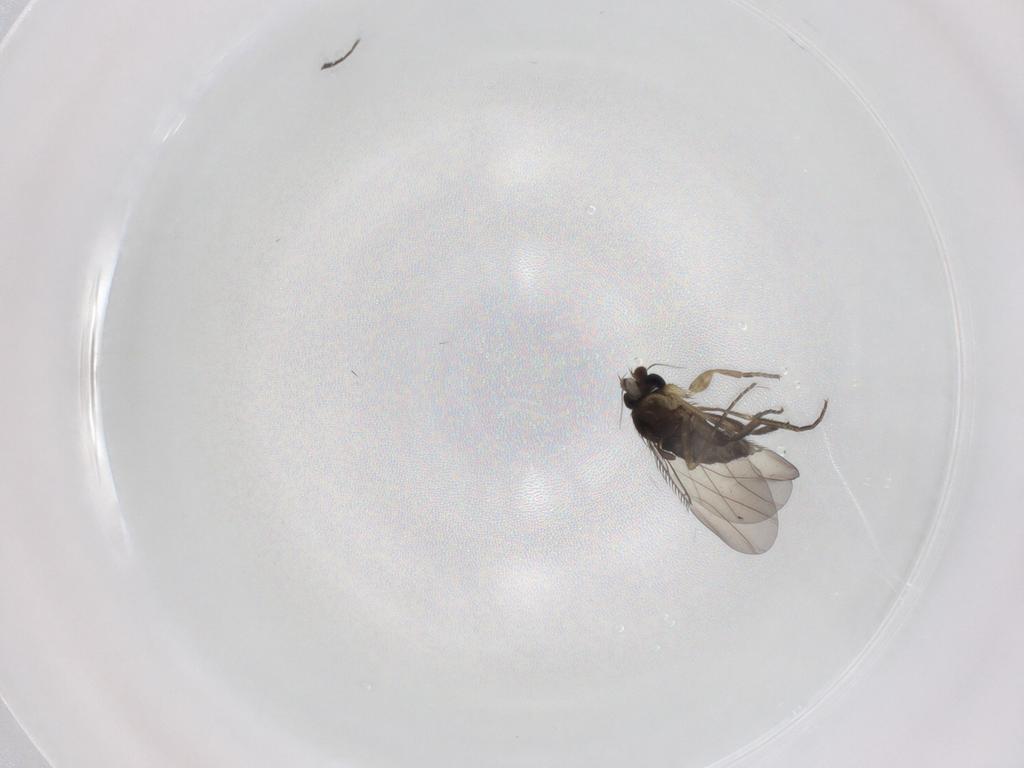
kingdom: Animalia
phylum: Arthropoda
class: Insecta
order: Diptera
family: Phoridae
